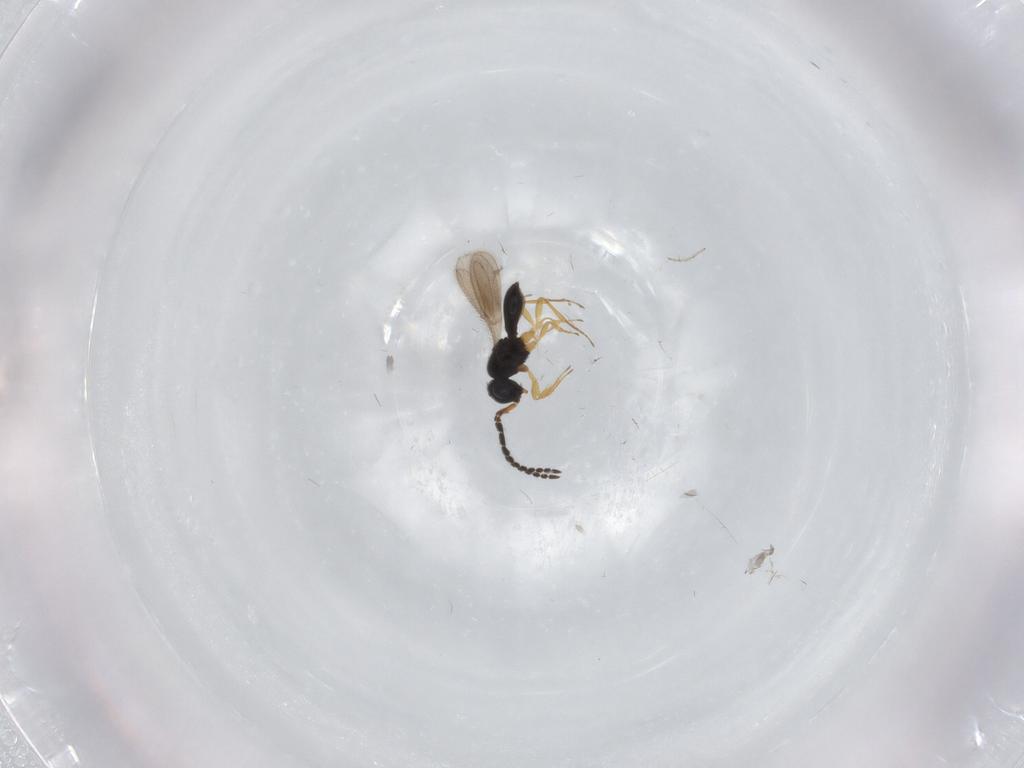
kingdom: Animalia
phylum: Arthropoda
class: Insecta
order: Hymenoptera
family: Scelionidae
